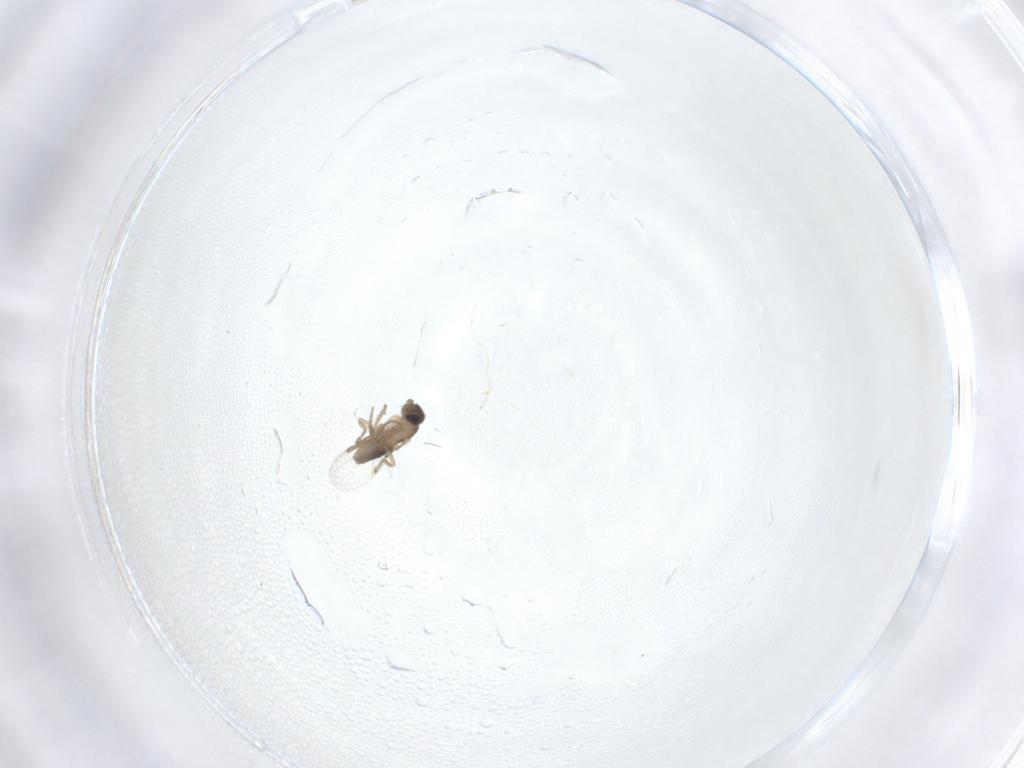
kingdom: Animalia
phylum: Arthropoda
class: Insecta
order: Diptera
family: Phoridae
